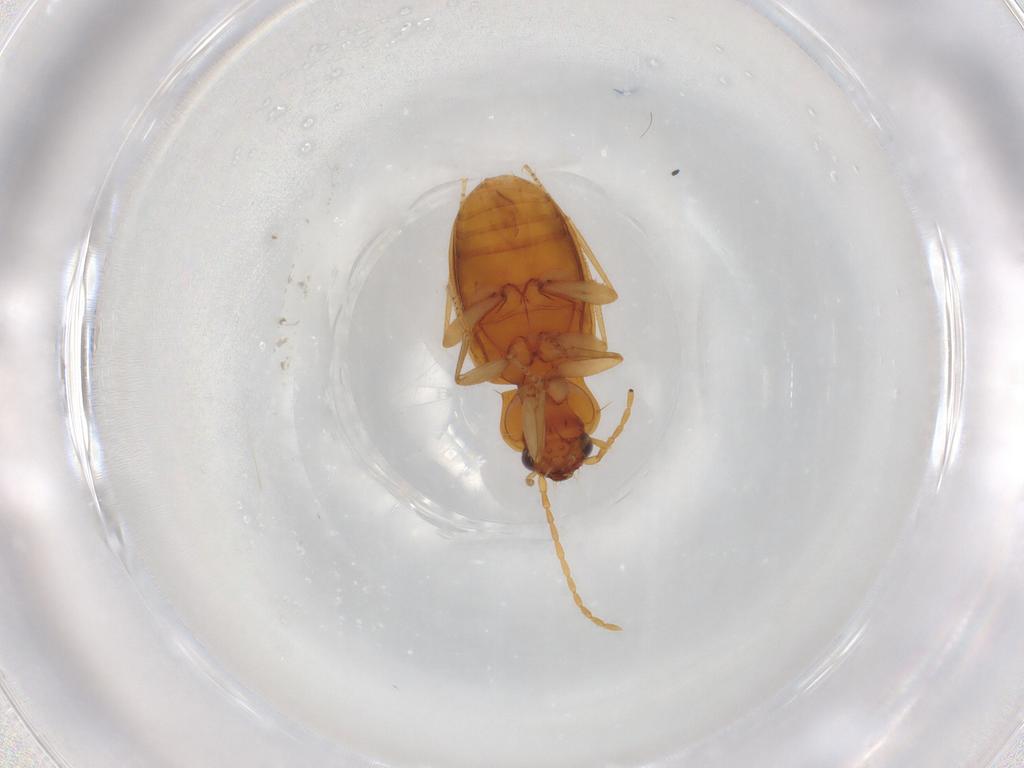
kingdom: Animalia
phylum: Arthropoda
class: Insecta
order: Coleoptera
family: Carabidae
